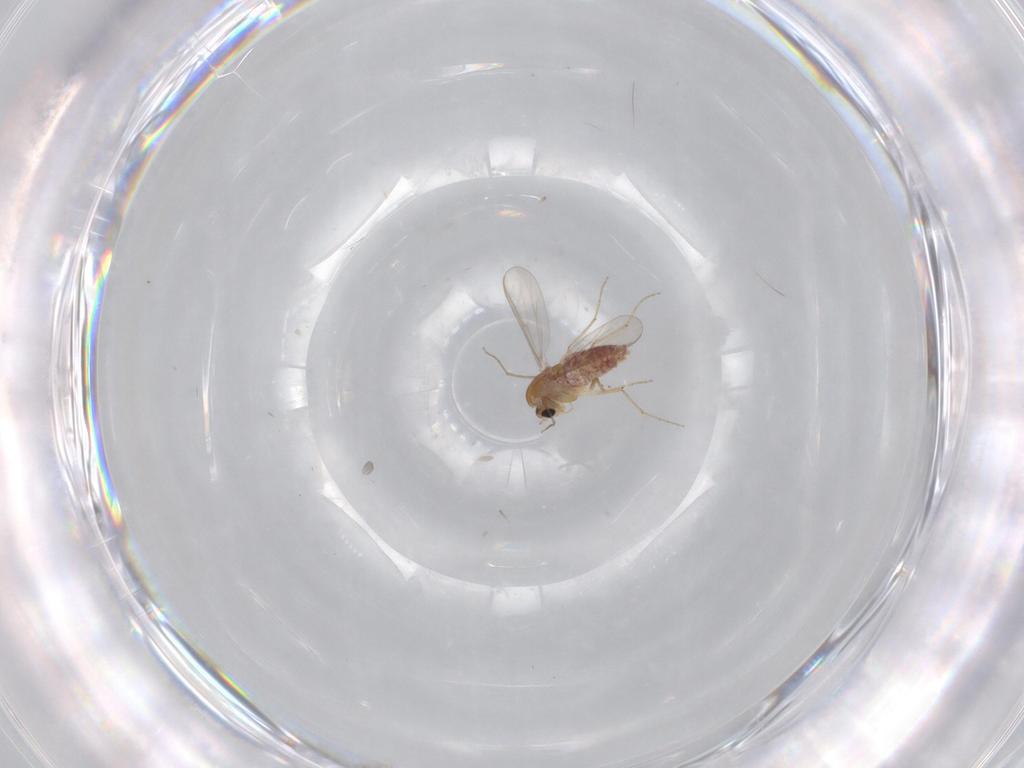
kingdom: Animalia
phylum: Arthropoda
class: Insecta
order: Diptera
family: Chironomidae
